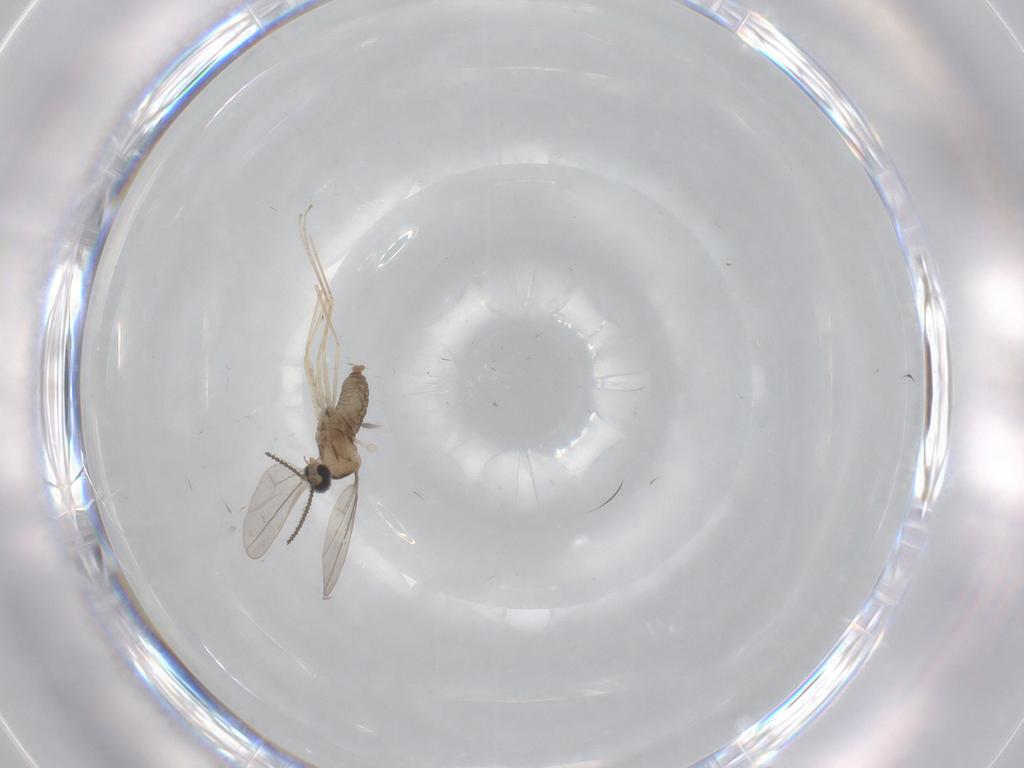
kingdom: Animalia
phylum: Arthropoda
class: Insecta
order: Diptera
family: Chironomidae
